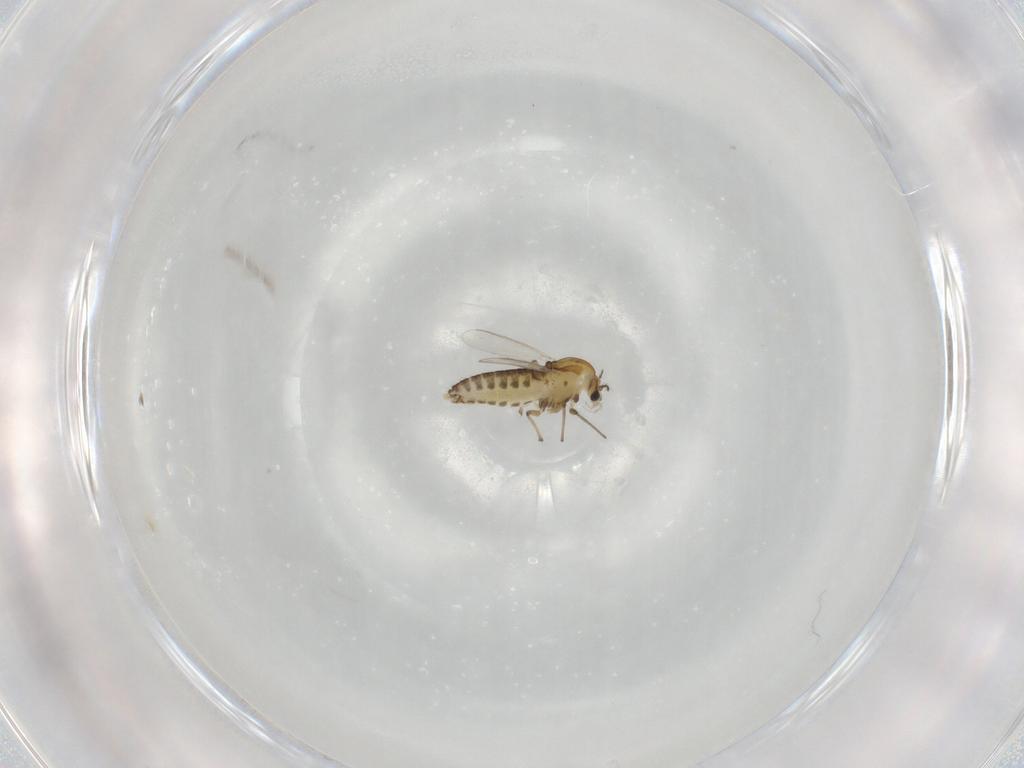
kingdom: Animalia
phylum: Arthropoda
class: Insecta
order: Diptera
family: Chironomidae
